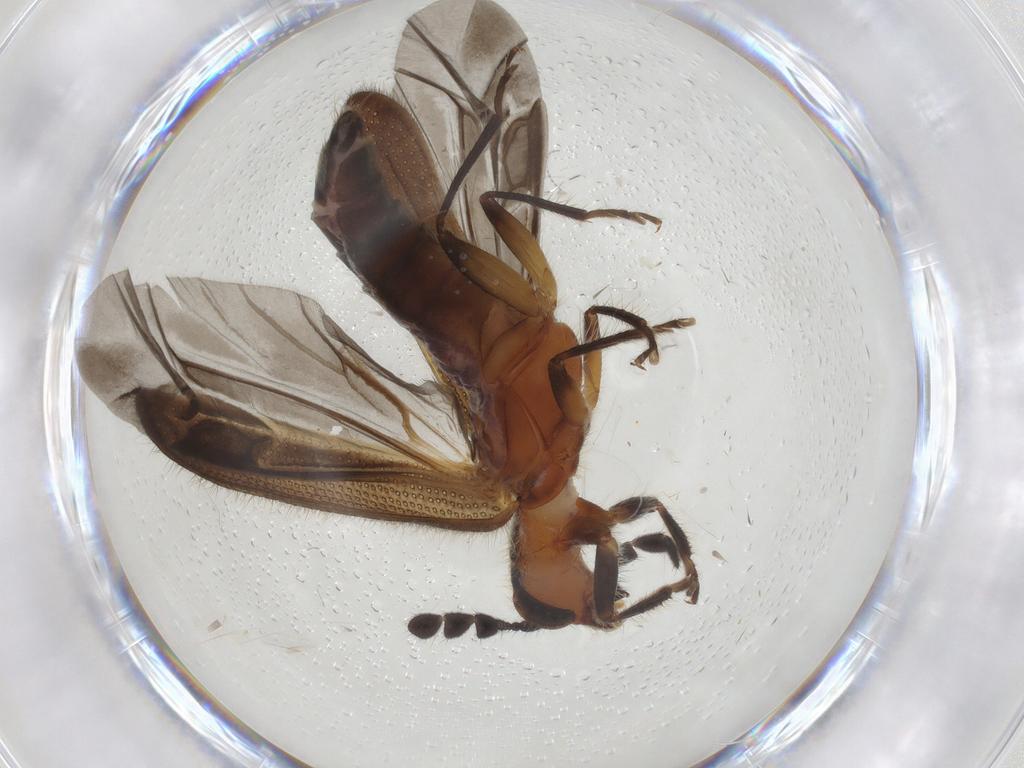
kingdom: Animalia
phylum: Arthropoda
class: Insecta
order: Coleoptera
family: Cleridae
